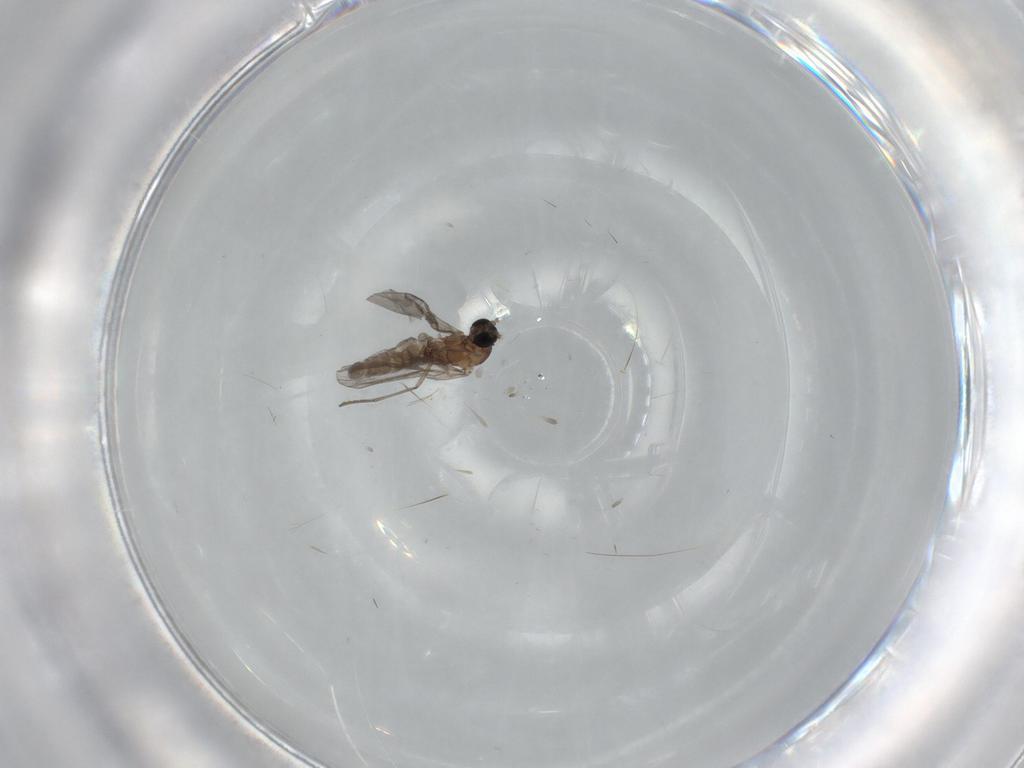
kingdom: Animalia
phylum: Arthropoda
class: Insecta
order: Diptera
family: Sciaridae
